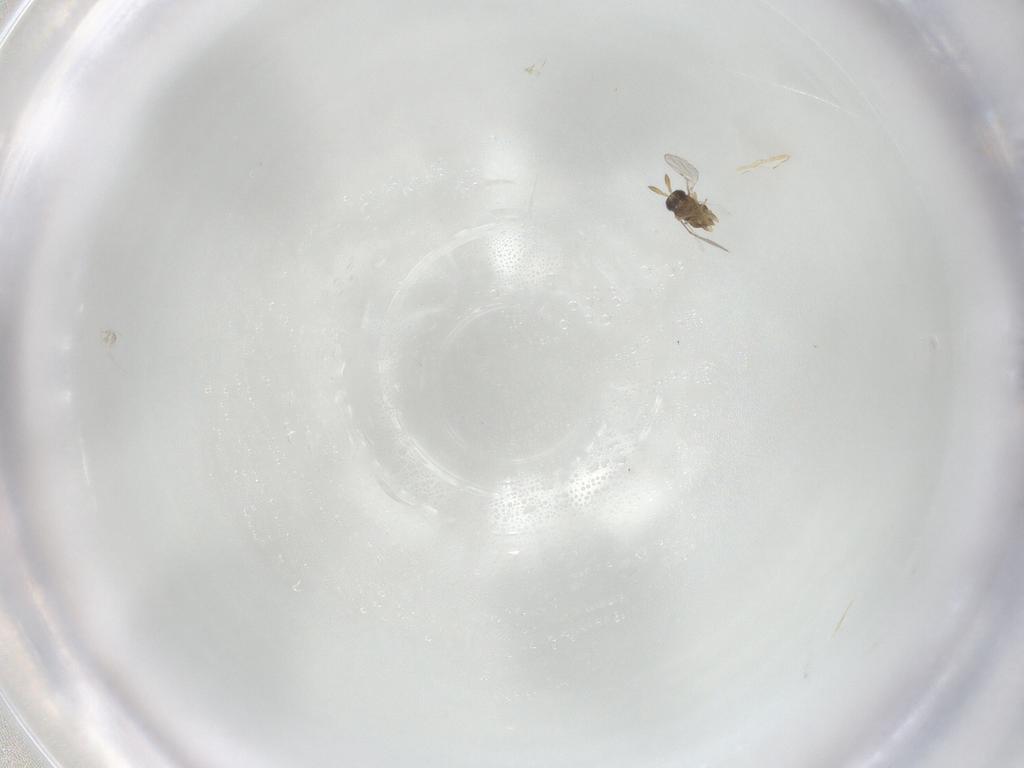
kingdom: Animalia
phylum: Arthropoda
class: Insecta
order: Hymenoptera
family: Encyrtidae
